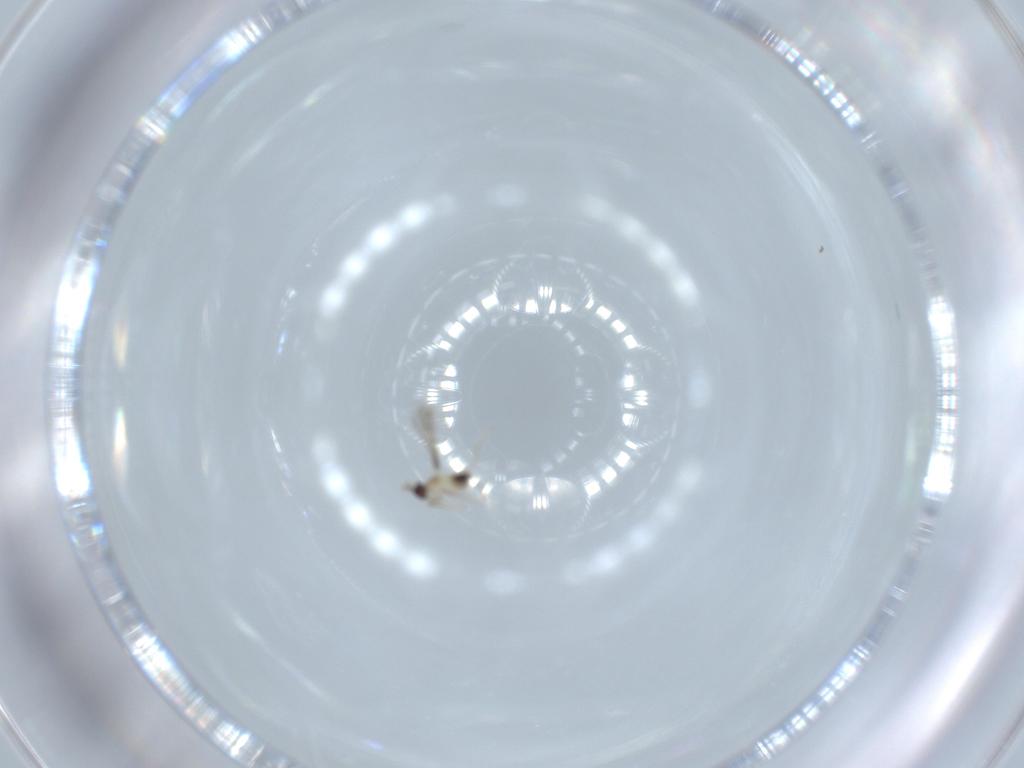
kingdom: Animalia
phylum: Arthropoda
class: Insecta
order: Hymenoptera
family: Mymaridae
